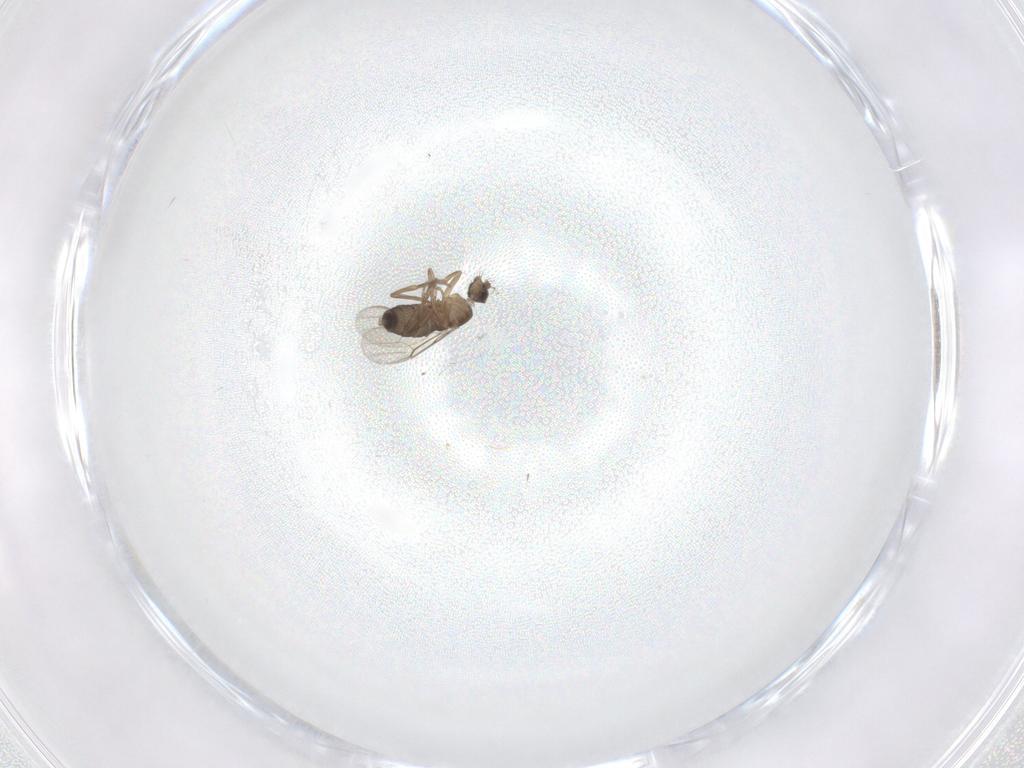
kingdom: Animalia
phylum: Arthropoda
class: Insecta
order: Diptera
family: Phoridae
